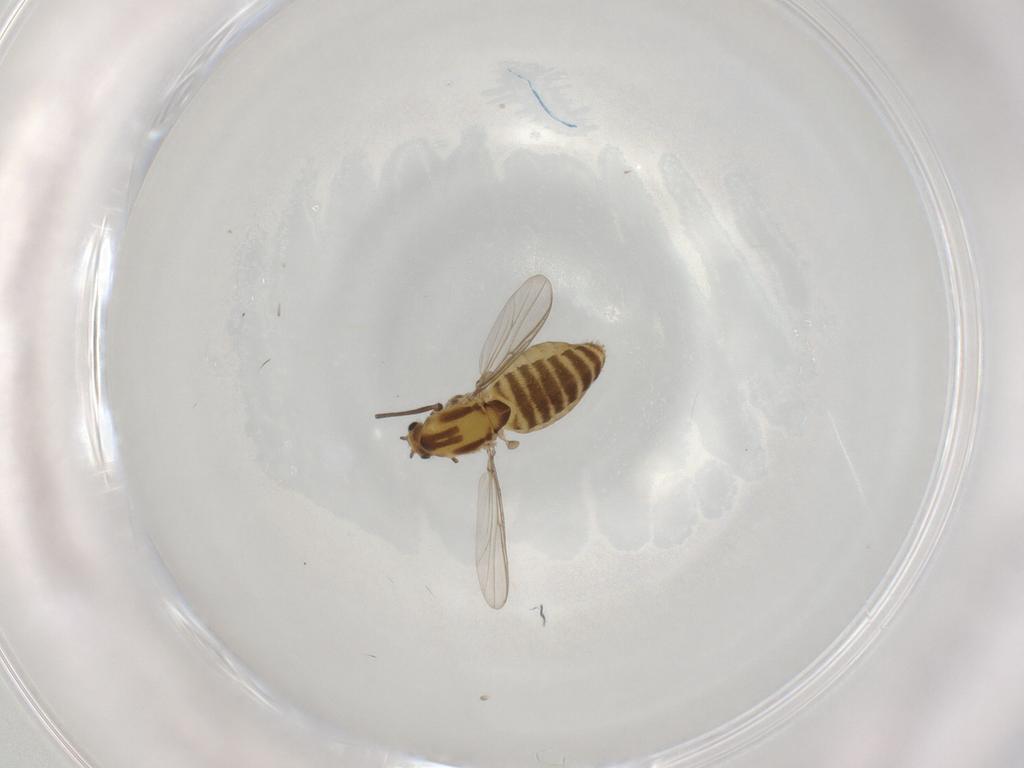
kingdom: Animalia
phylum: Arthropoda
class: Insecta
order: Diptera
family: Chironomidae
